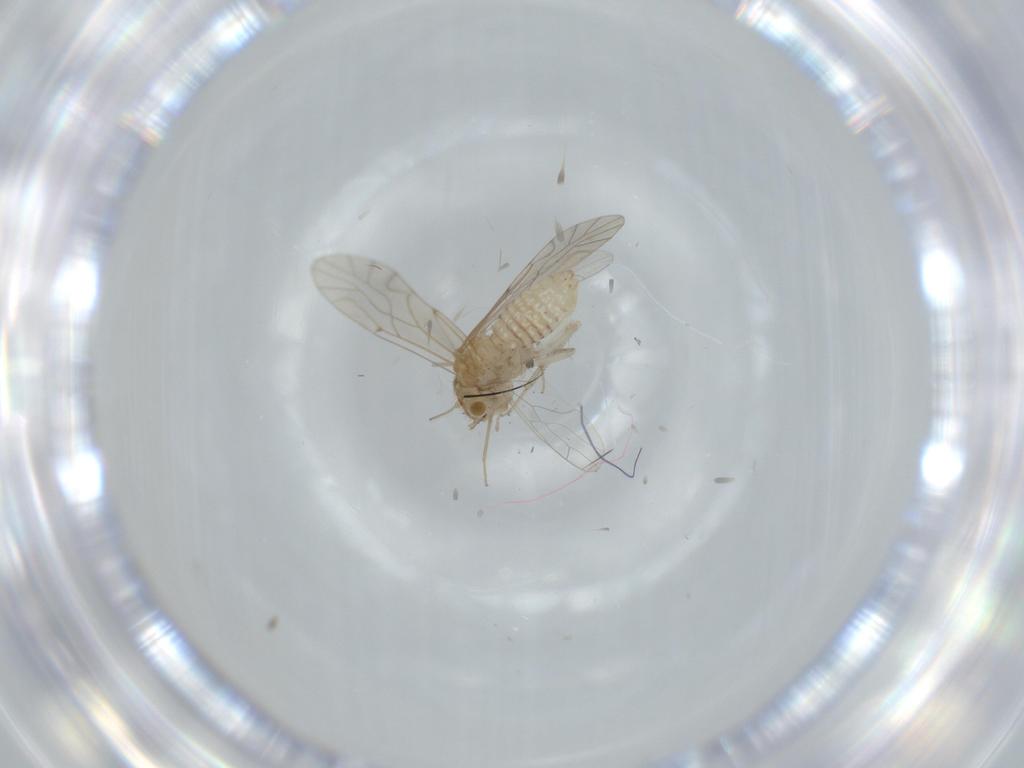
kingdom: Animalia
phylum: Arthropoda
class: Insecta
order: Psocodea
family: Lachesillidae
